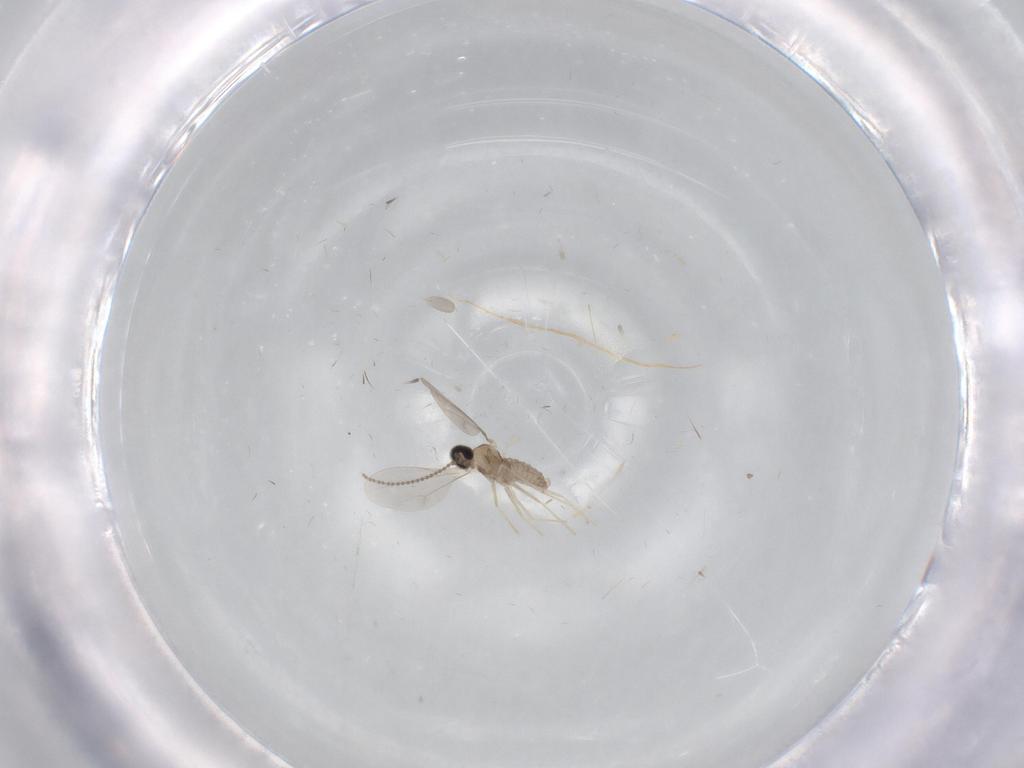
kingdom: Animalia
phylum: Arthropoda
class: Insecta
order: Diptera
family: Cecidomyiidae
